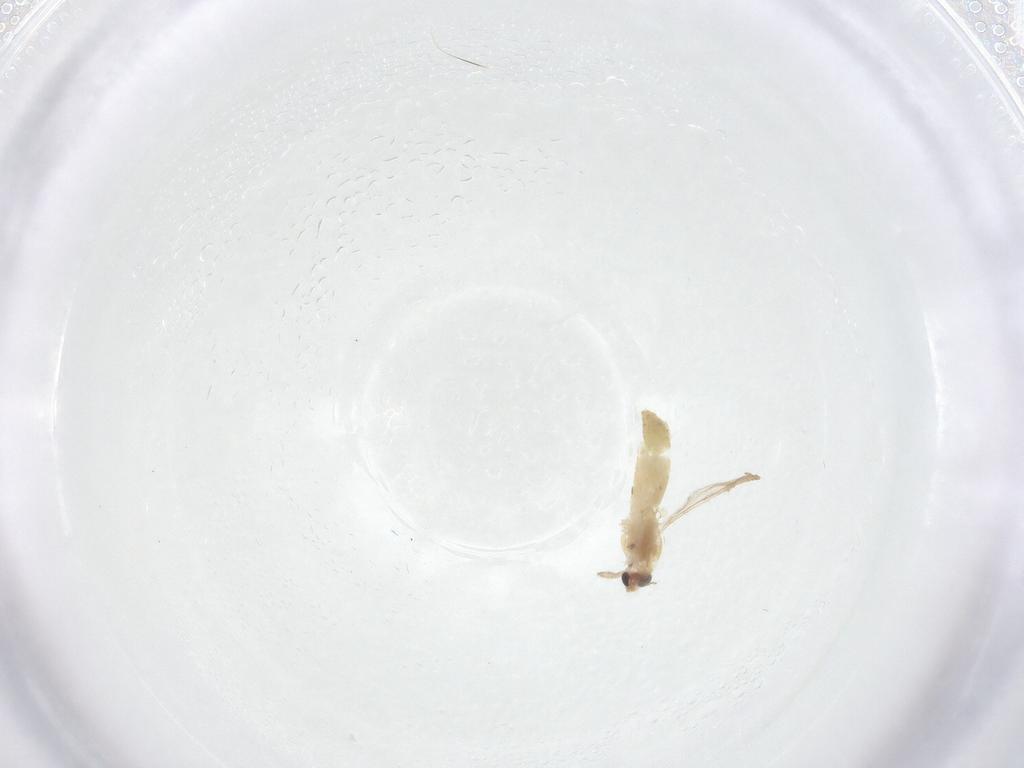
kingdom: Animalia
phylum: Arthropoda
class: Insecta
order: Diptera
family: Chironomidae
